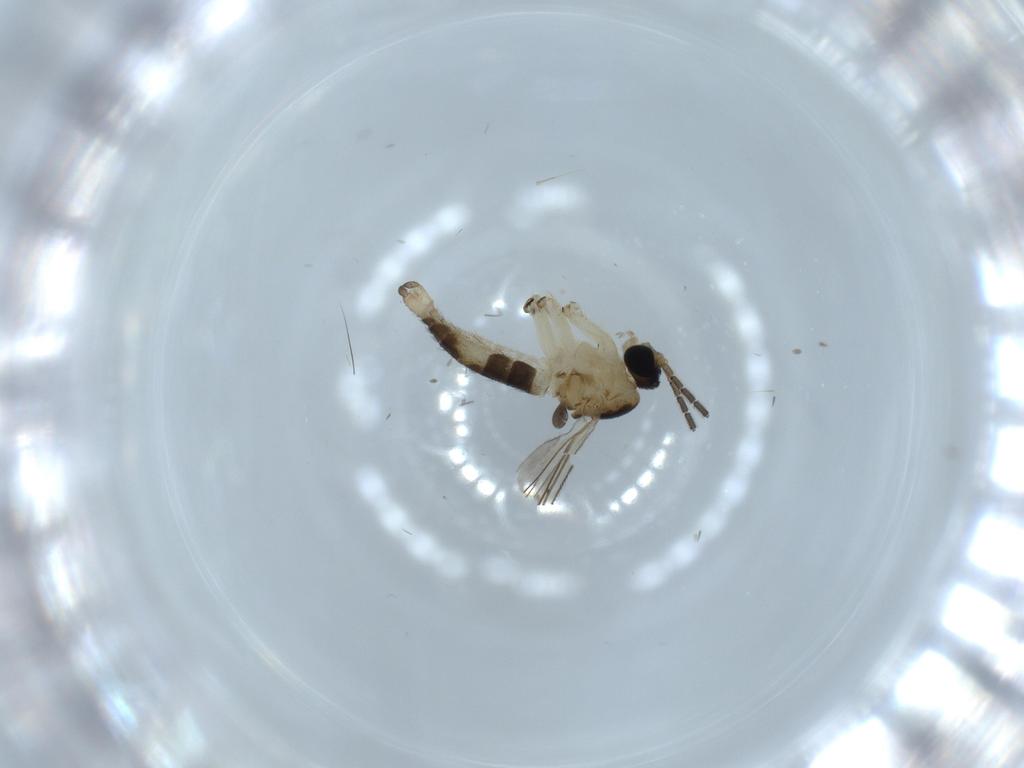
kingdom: Animalia
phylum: Arthropoda
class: Insecta
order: Diptera
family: Sciaridae
